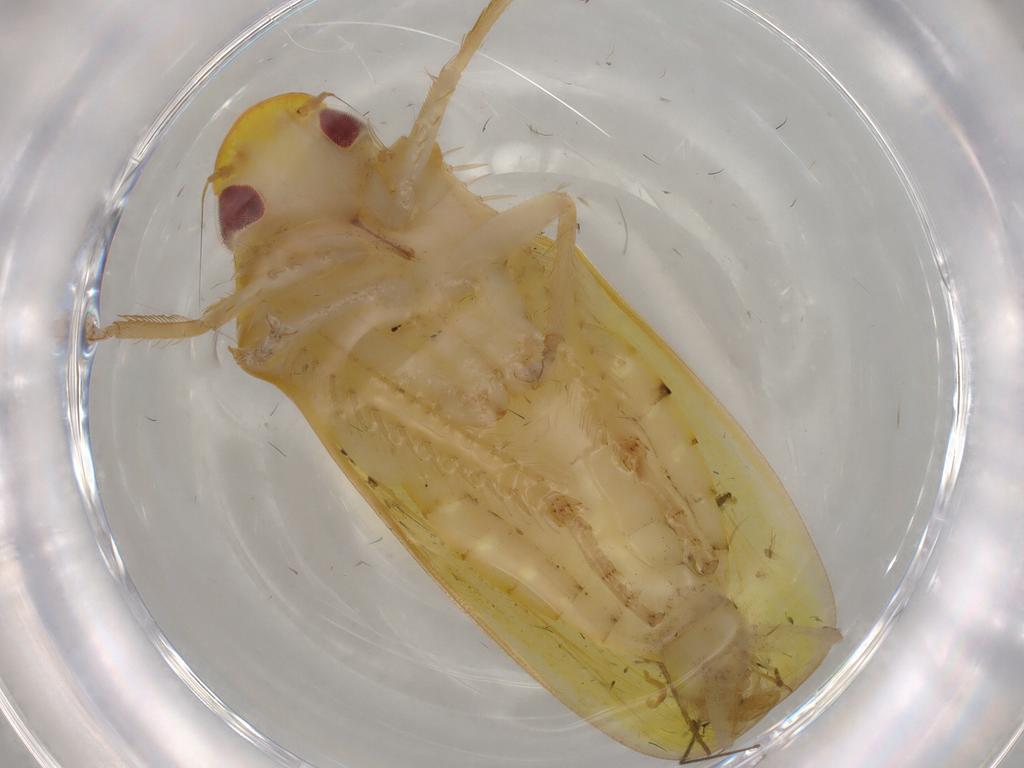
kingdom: Animalia
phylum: Arthropoda
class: Insecta
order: Hemiptera
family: Cicadellidae
